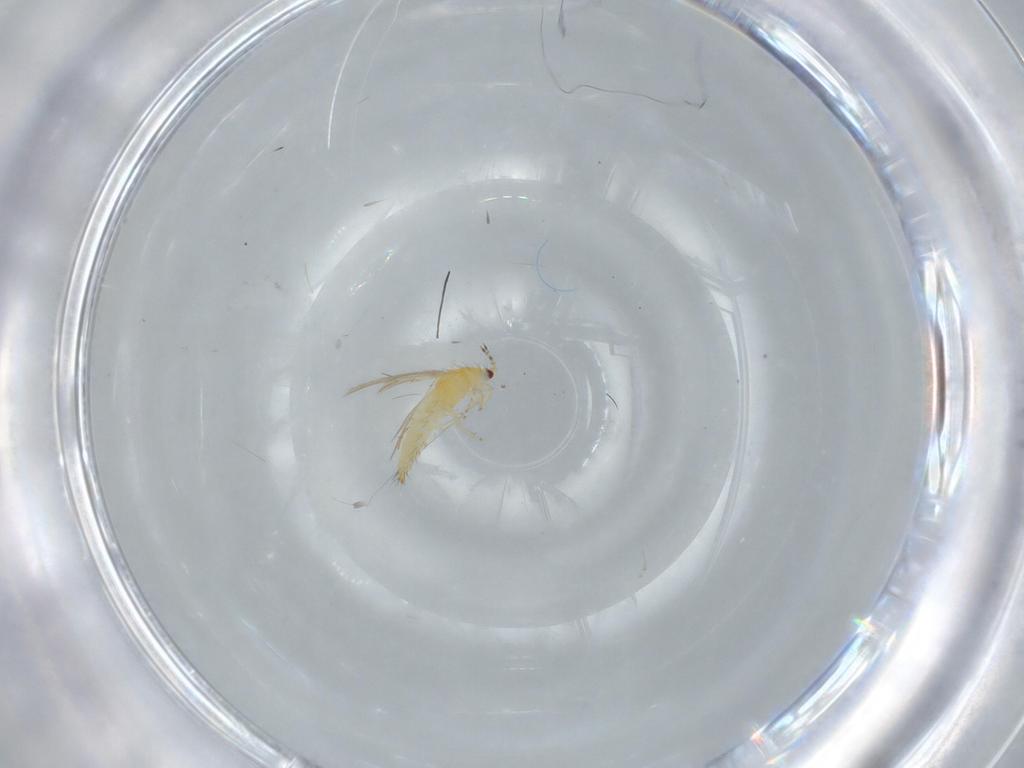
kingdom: Animalia
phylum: Arthropoda
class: Insecta
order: Thysanoptera
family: Thripidae
